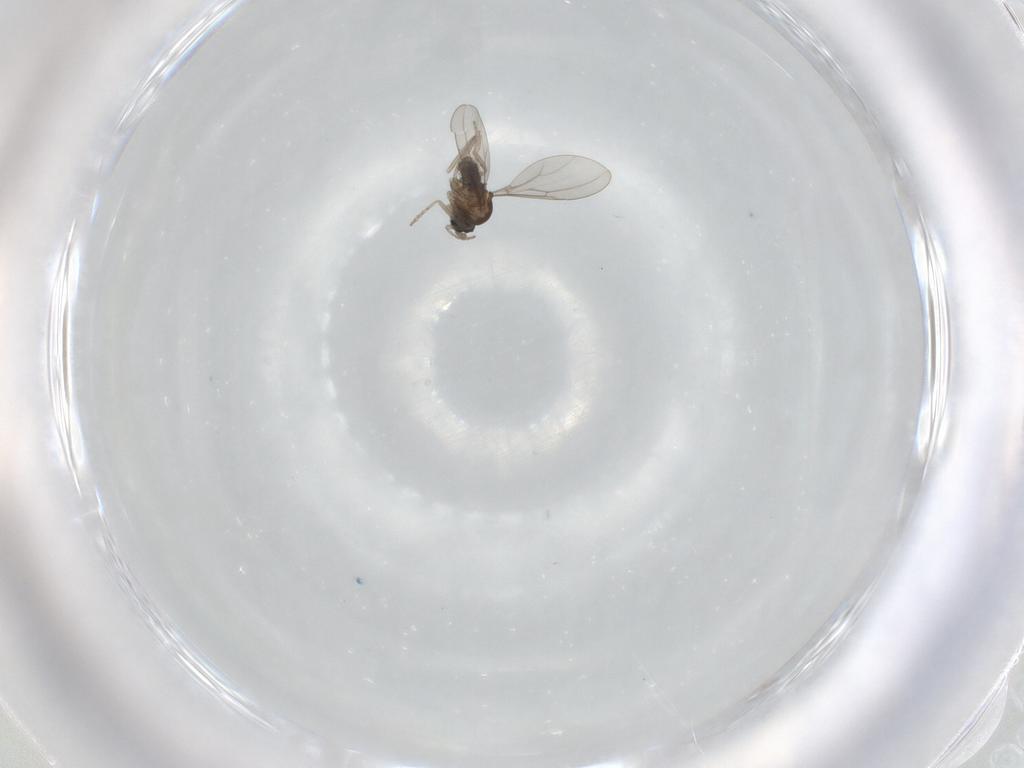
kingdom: Animalia
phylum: Arthropoda
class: Insecta
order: Diptera
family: Cecidomyiidae
